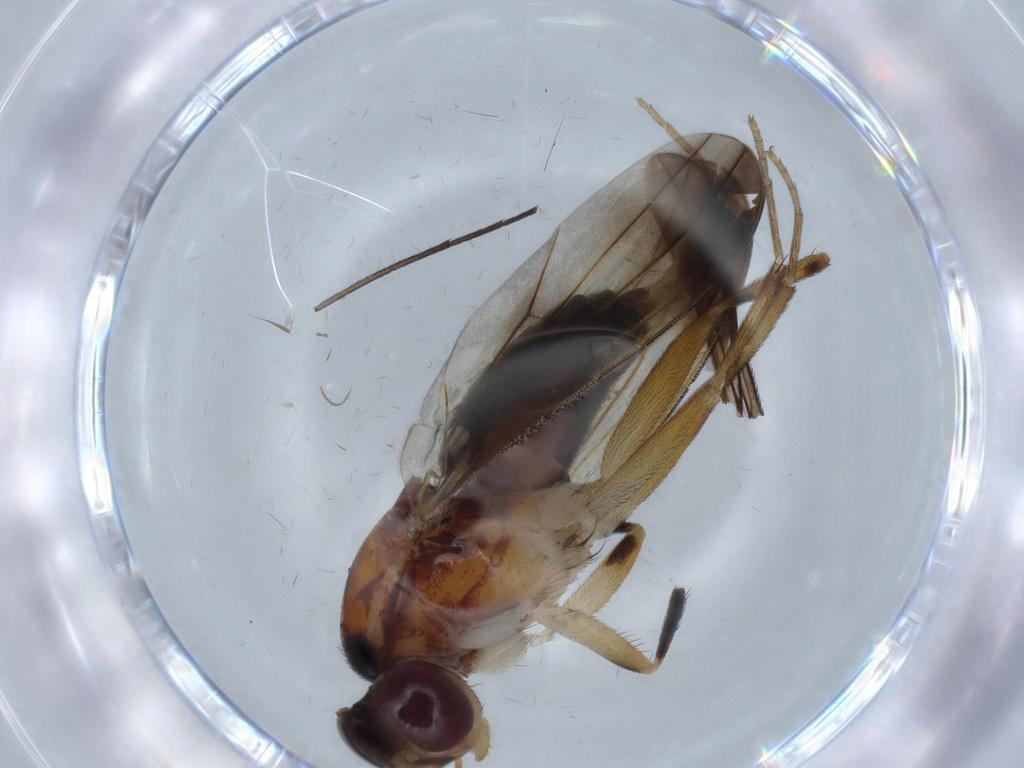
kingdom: Animalia
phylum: Arthropoda
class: Insecta
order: Diptera
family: Clusiidae
